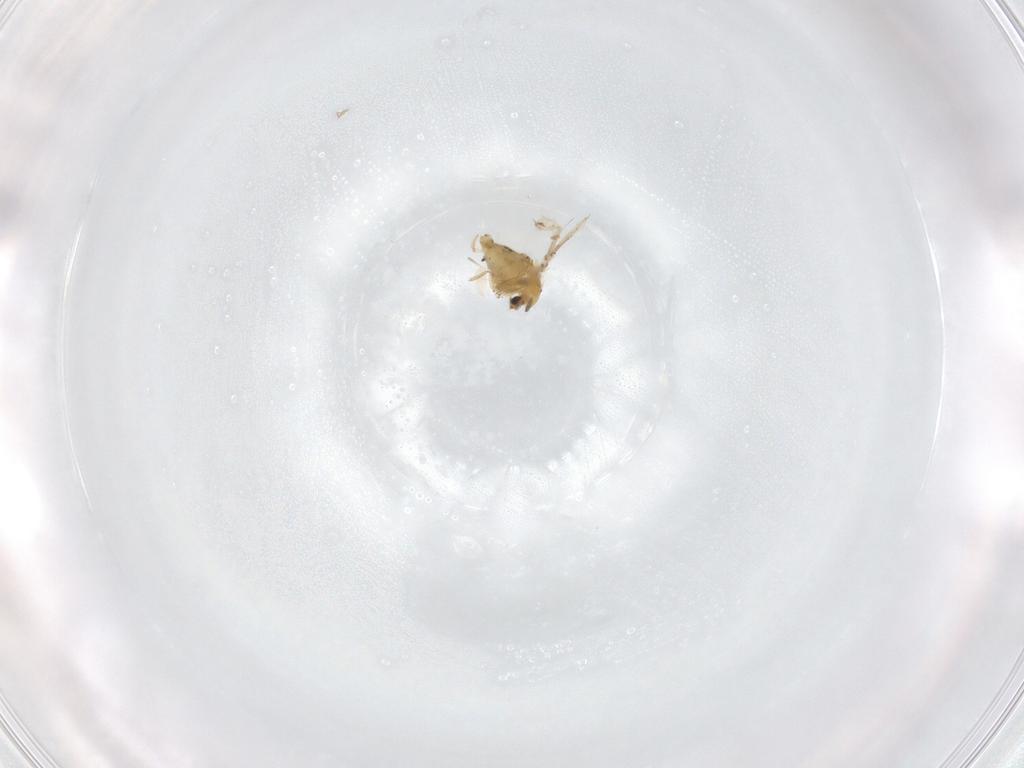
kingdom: Animalia
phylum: Arthropoda
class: Insecta
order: Diptera
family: Chironomidae
